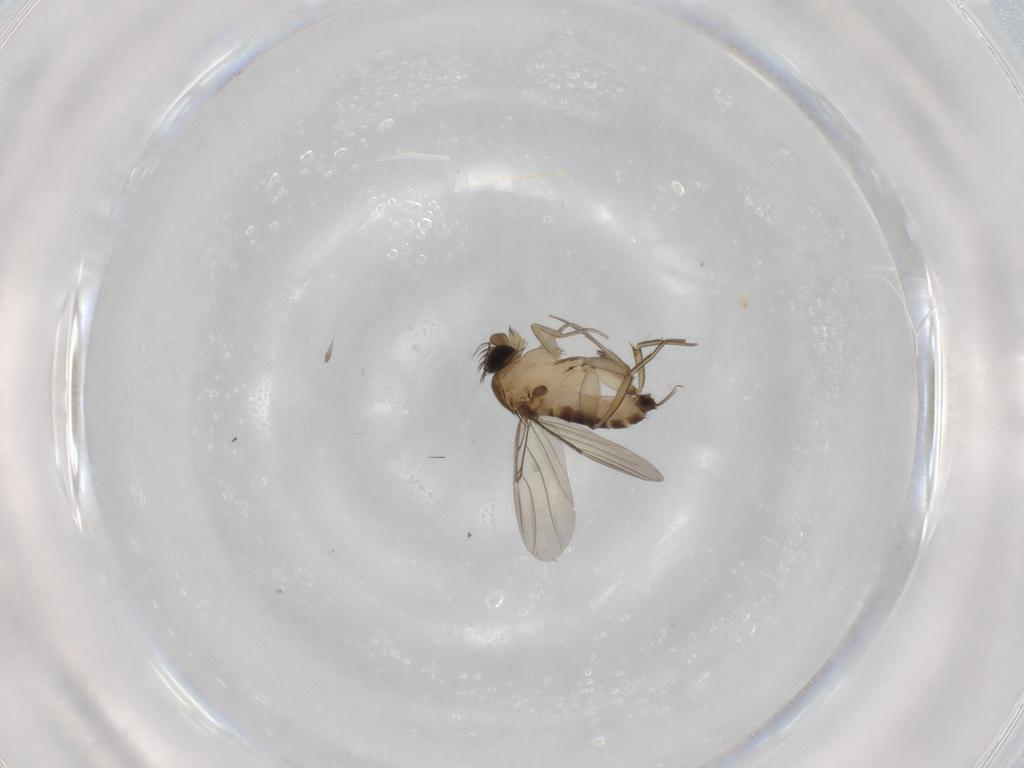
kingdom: Animalia
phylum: Arthropoda
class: Insecta
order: Diptera
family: Phoridae
